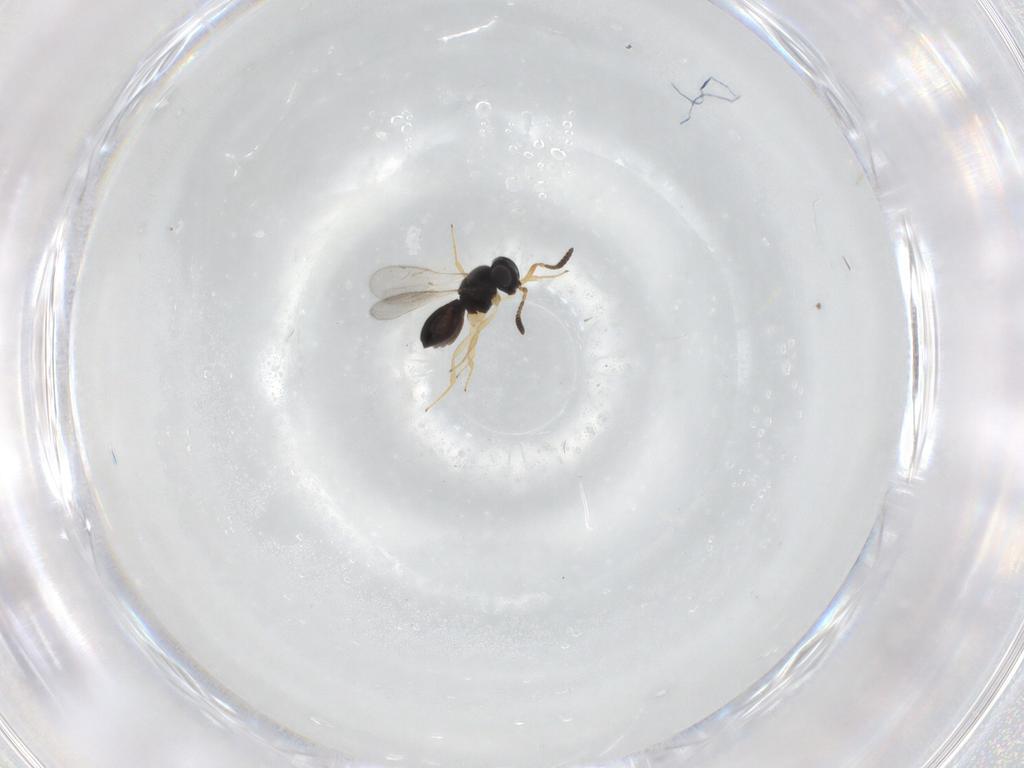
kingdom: Animalia
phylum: Arthropoda
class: Insecta
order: Hymenoptera
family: Scelionidae
